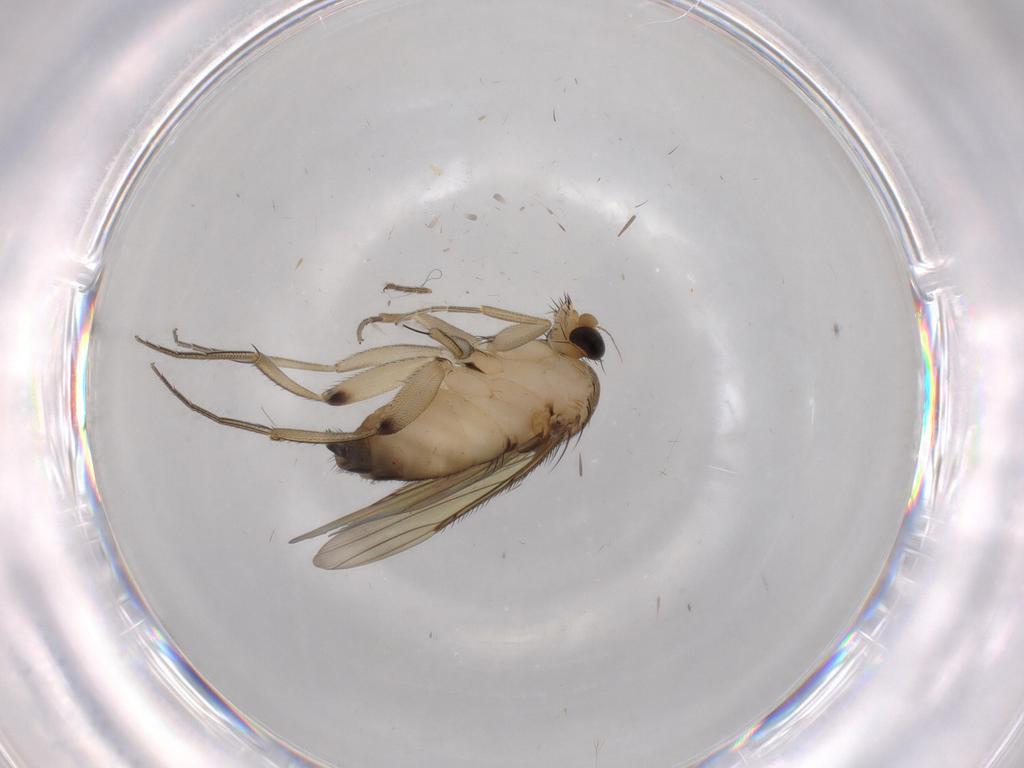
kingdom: Animalia
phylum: Arthropoda
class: Insecta
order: Diptera
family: Phoridae
